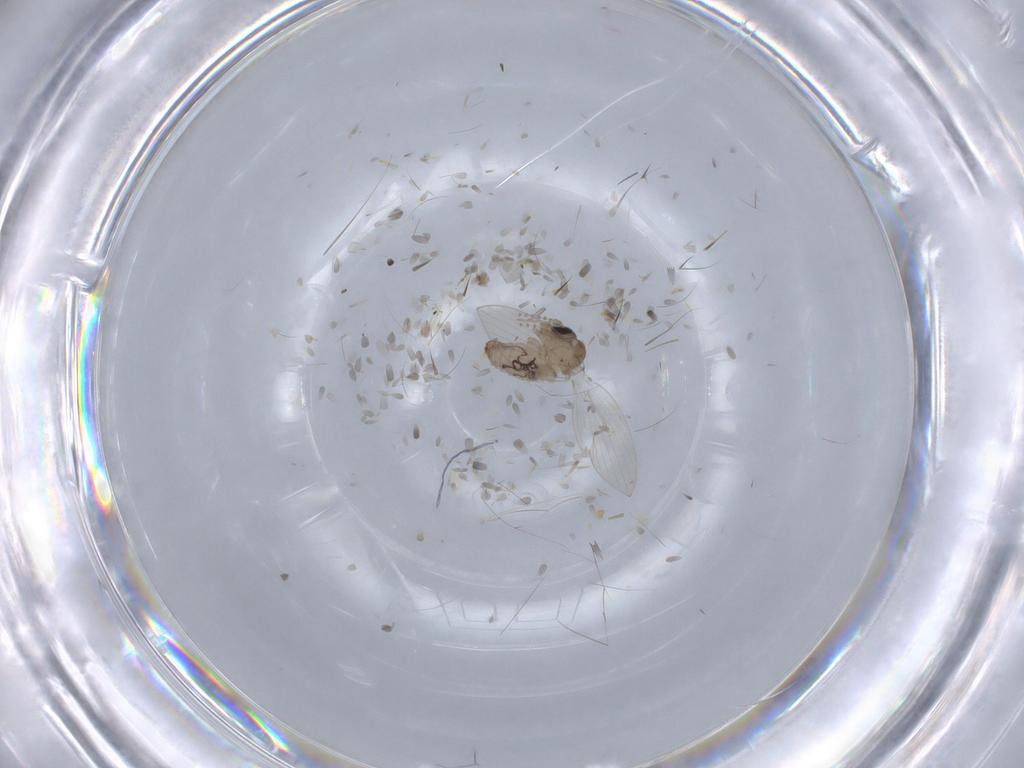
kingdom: Animalia
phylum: Arthropoda
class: Insecta
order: Diptera
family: Psychodidae
